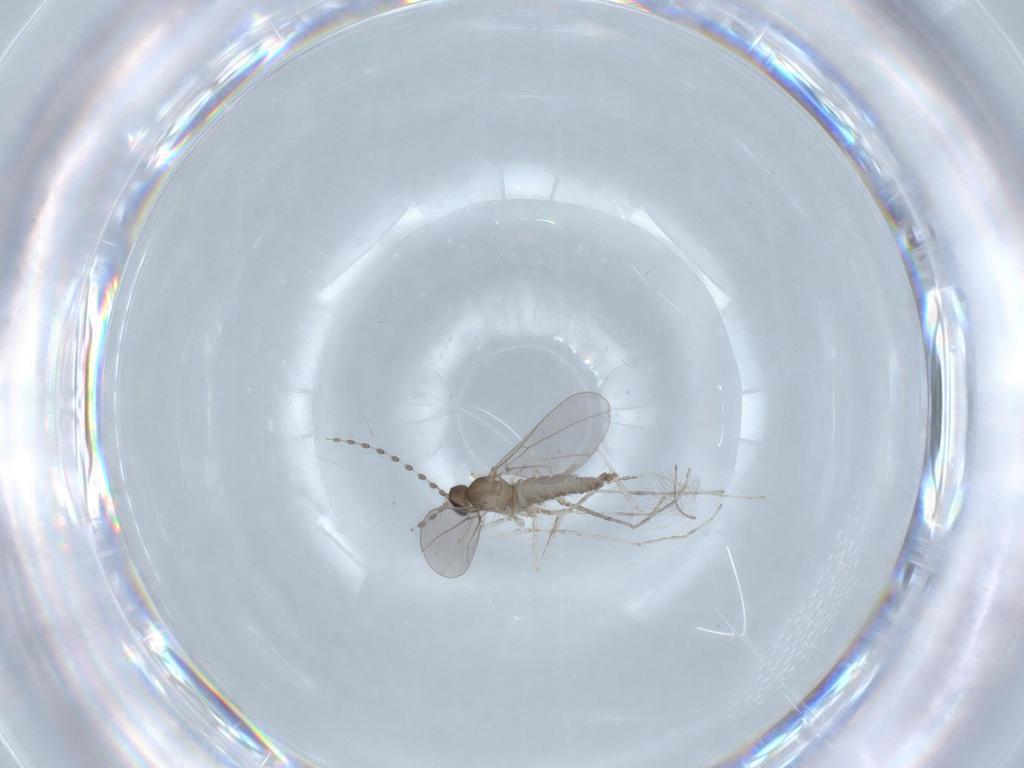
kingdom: Animalia
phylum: Arthropoda
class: Insecta
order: Diptera
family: Cecidomyiidae
